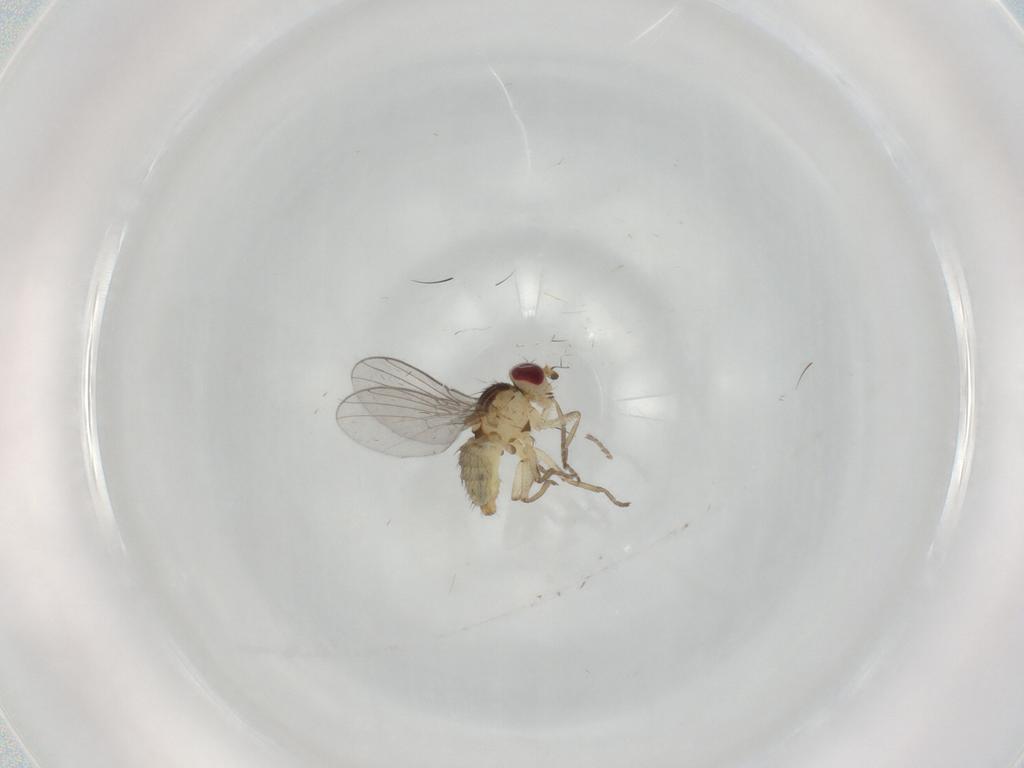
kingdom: Animalia
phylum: Arthropoda
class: Insecta
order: Diptera
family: Agromyzidae
